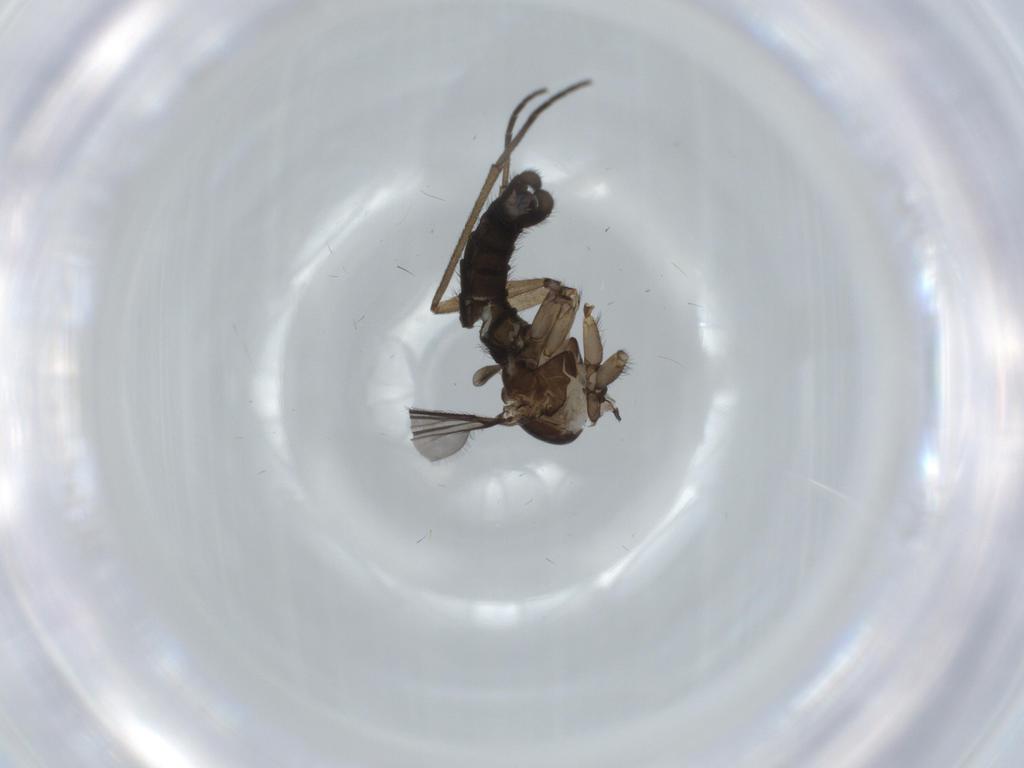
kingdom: Animalia
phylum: Arthropoda
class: Insecta
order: Diptera
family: Sciaridae
